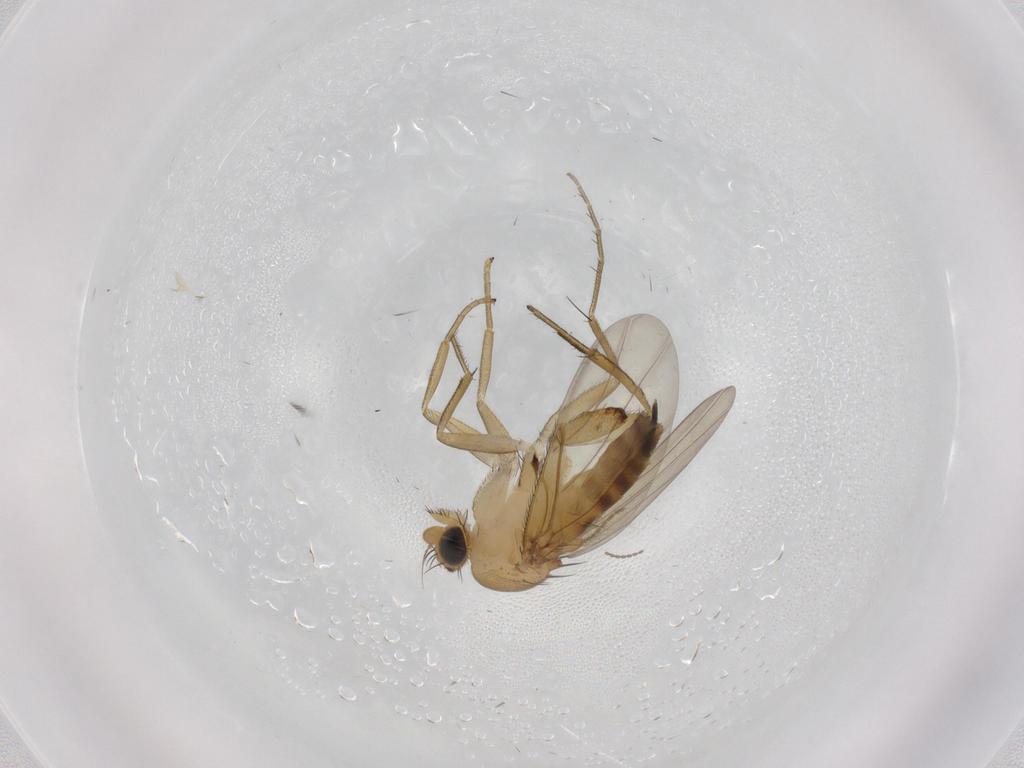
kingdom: Animalia
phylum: Arthropoda
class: Insecta
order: Diptera
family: Phoridae
